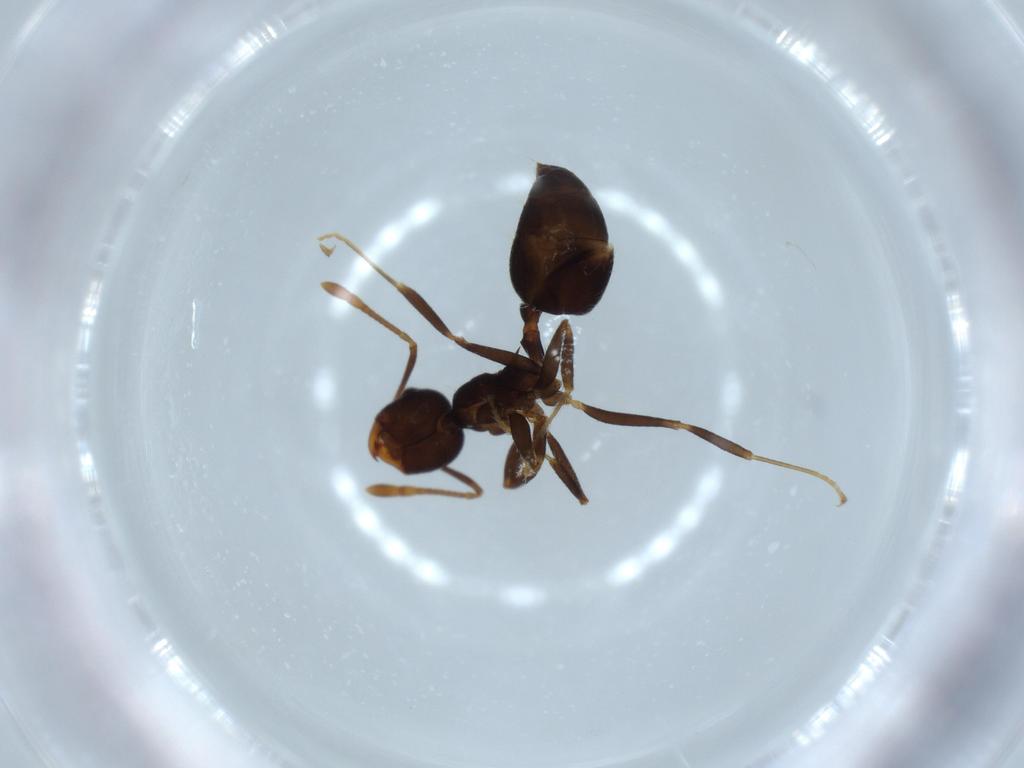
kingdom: Animalia
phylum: Arthropoda
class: Insecta
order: Hymenoptera
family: Formicidae
